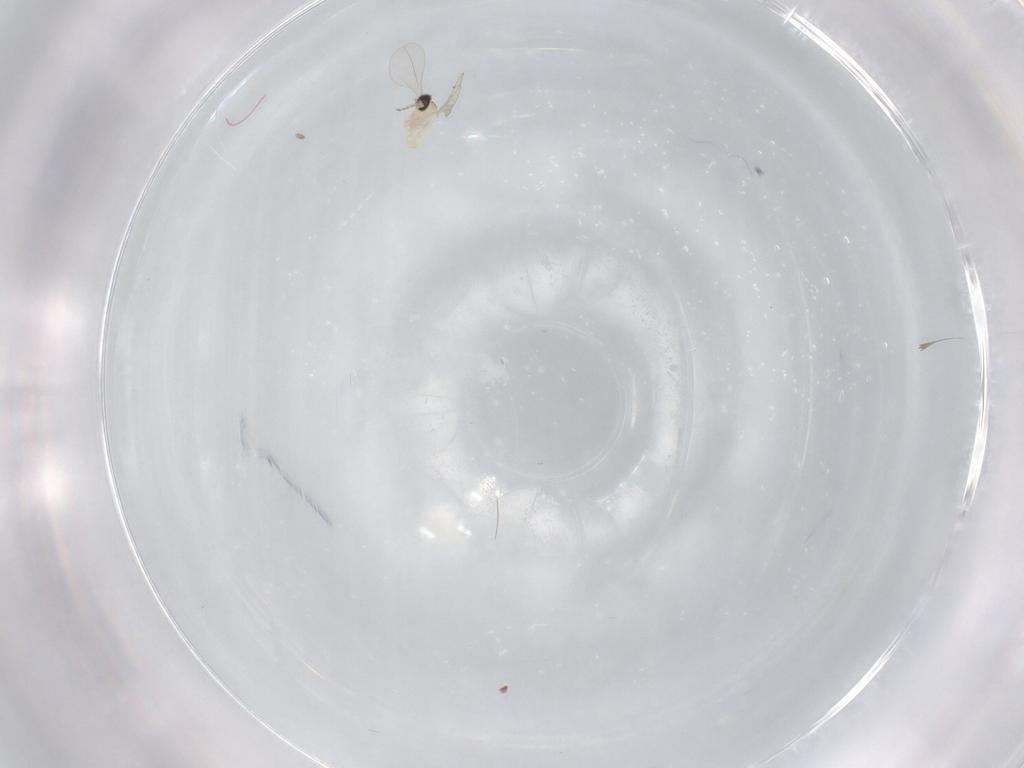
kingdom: Animalia
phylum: Arthropoda
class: Insecta
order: Diptera
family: Cecidomyiidae
